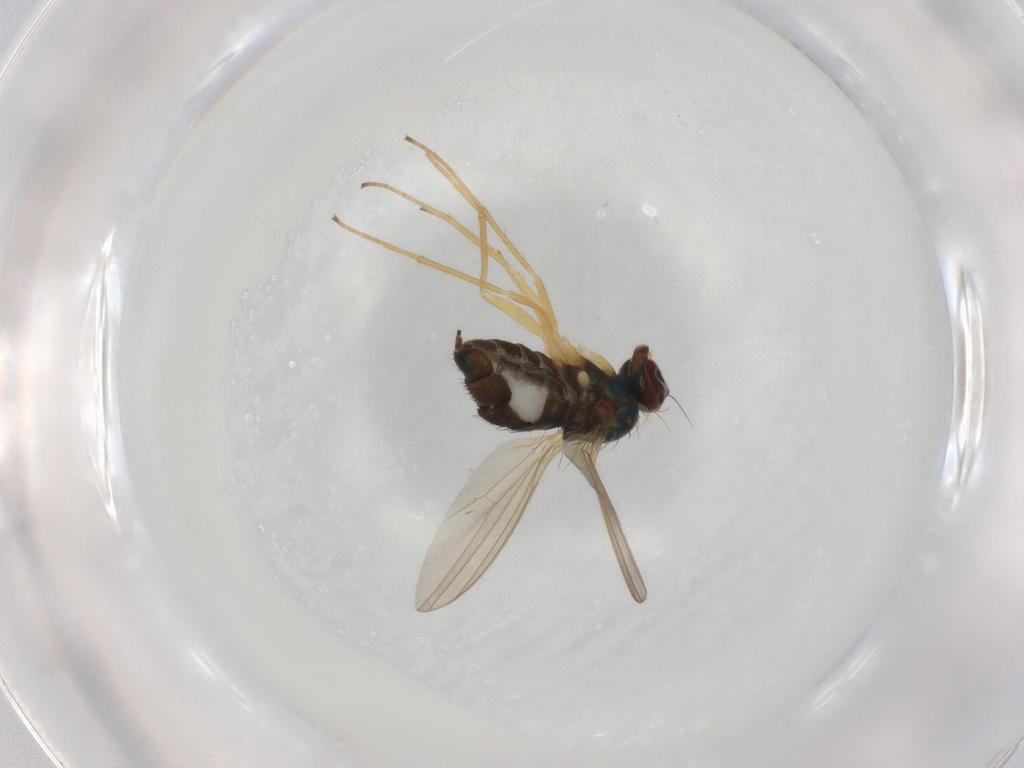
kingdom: Animalia
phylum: Arthropoda
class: Insecta
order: Diptera
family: Dolichopodidae
